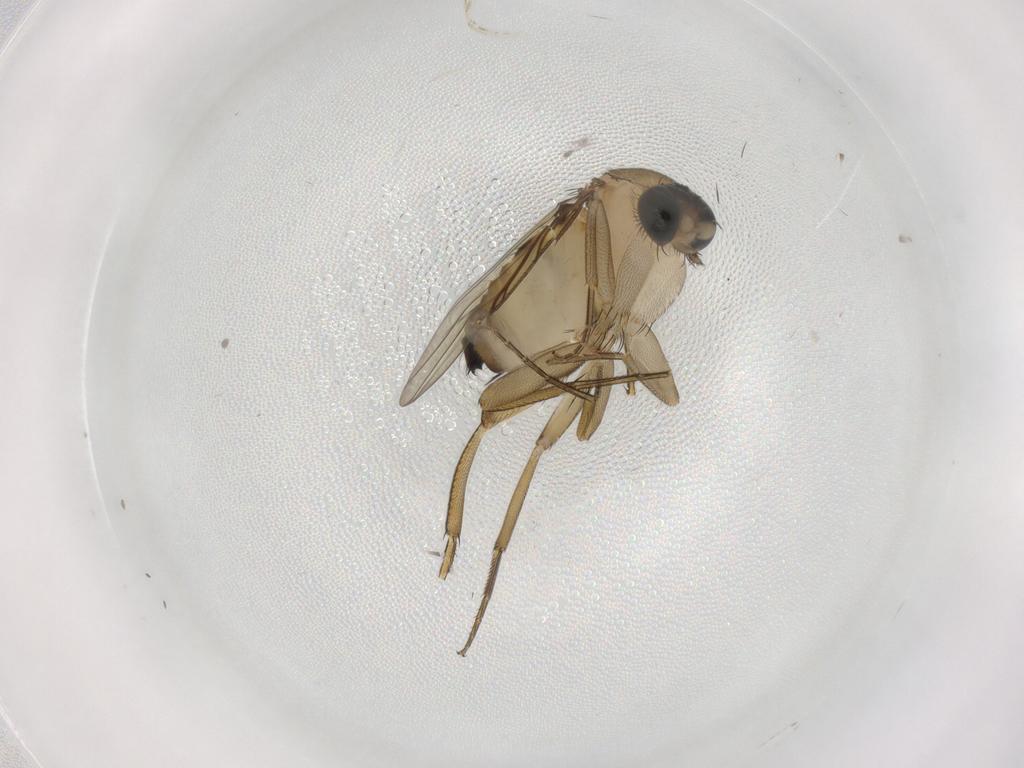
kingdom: Animalia
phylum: Arthropoda
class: Insecta
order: Diptera
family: Phoridae
